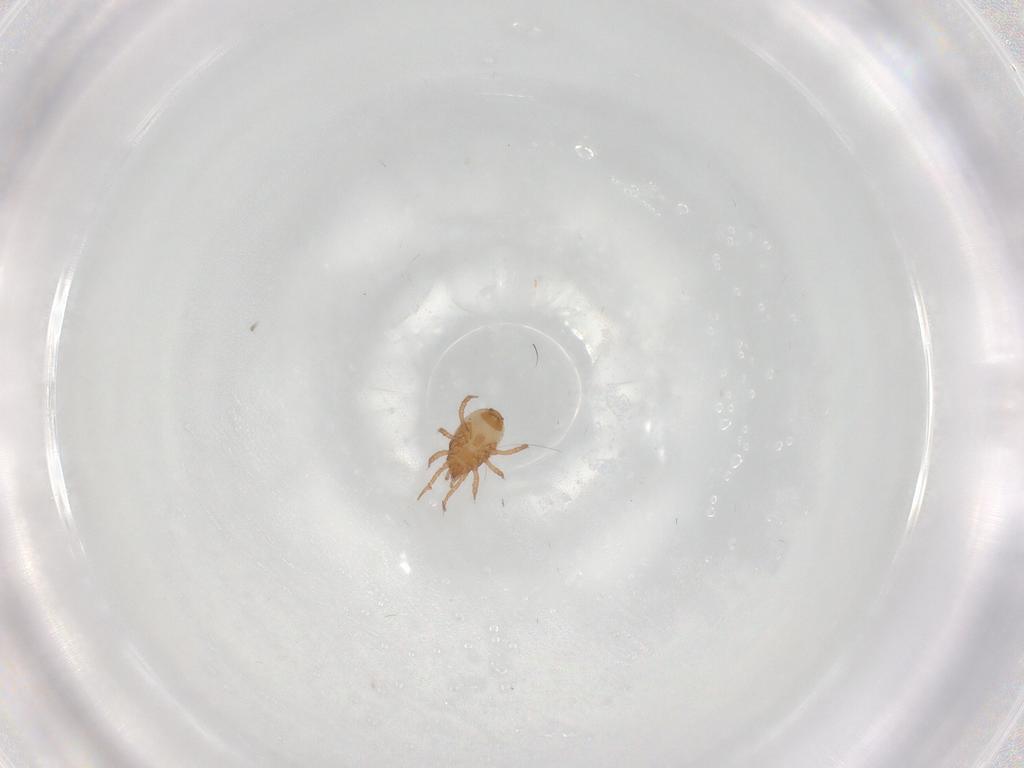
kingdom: Animalia
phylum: Arthropoda
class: Arachnida
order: Mesostigmata
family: Blattisociidae
